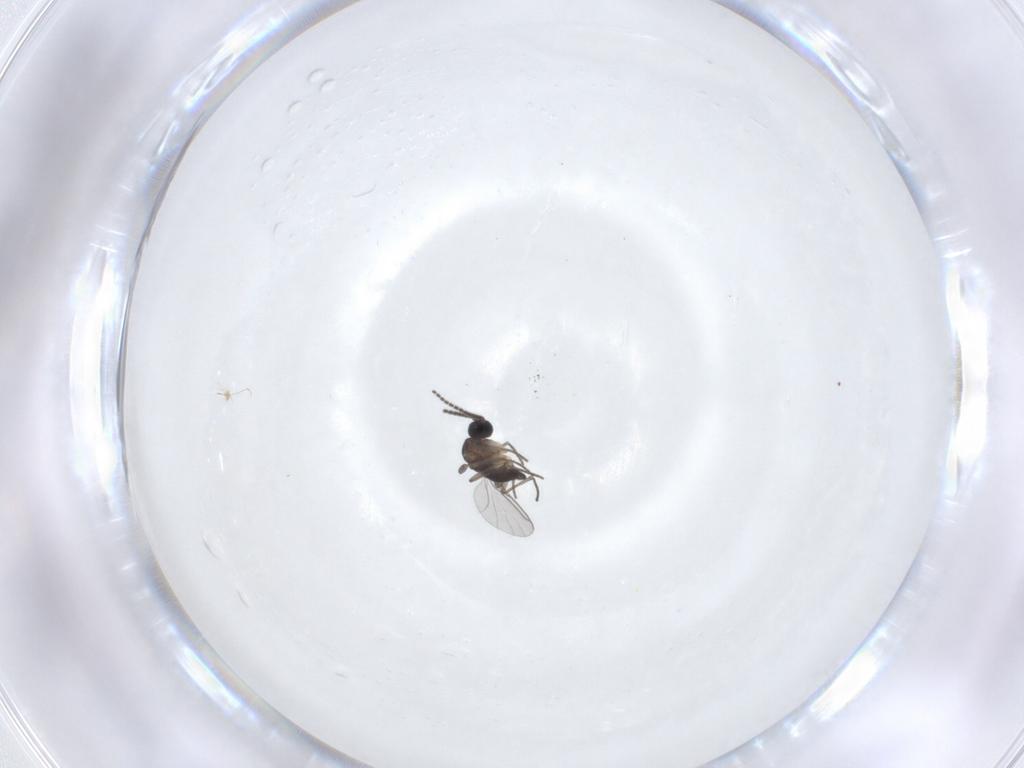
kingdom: Animalia
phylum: Arthropoda
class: Insecta
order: Diptera
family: Sciaridae
